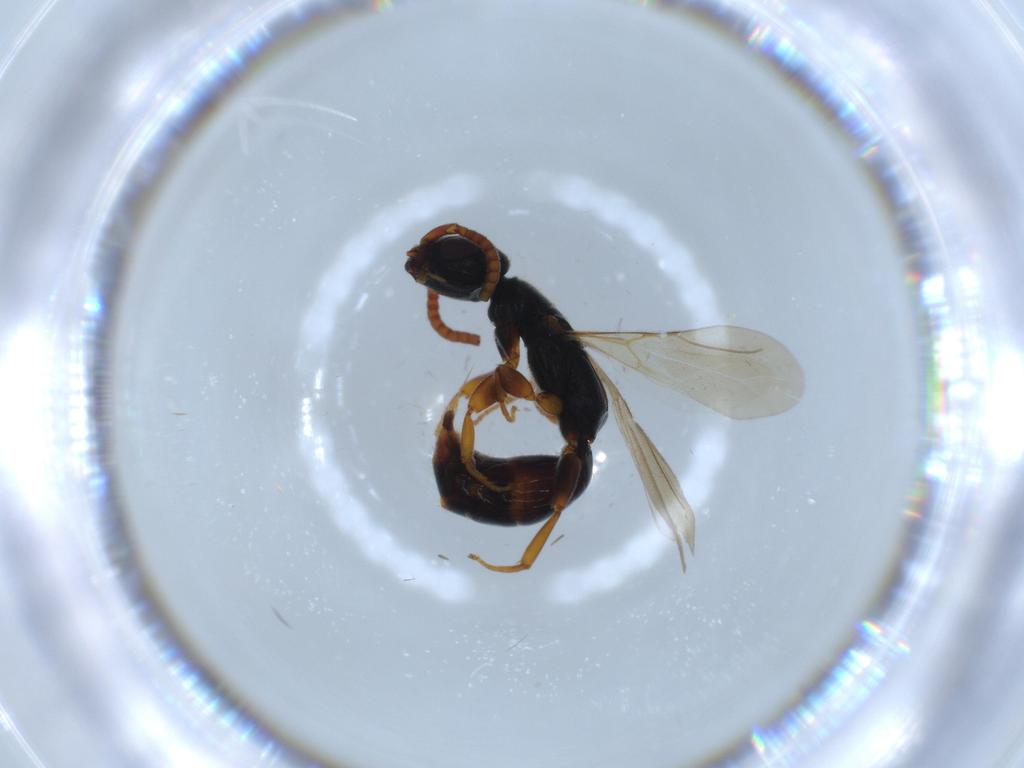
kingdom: Animalia
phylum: Arthropoda
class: Insecta
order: Hymenoptera
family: Bethylidae
